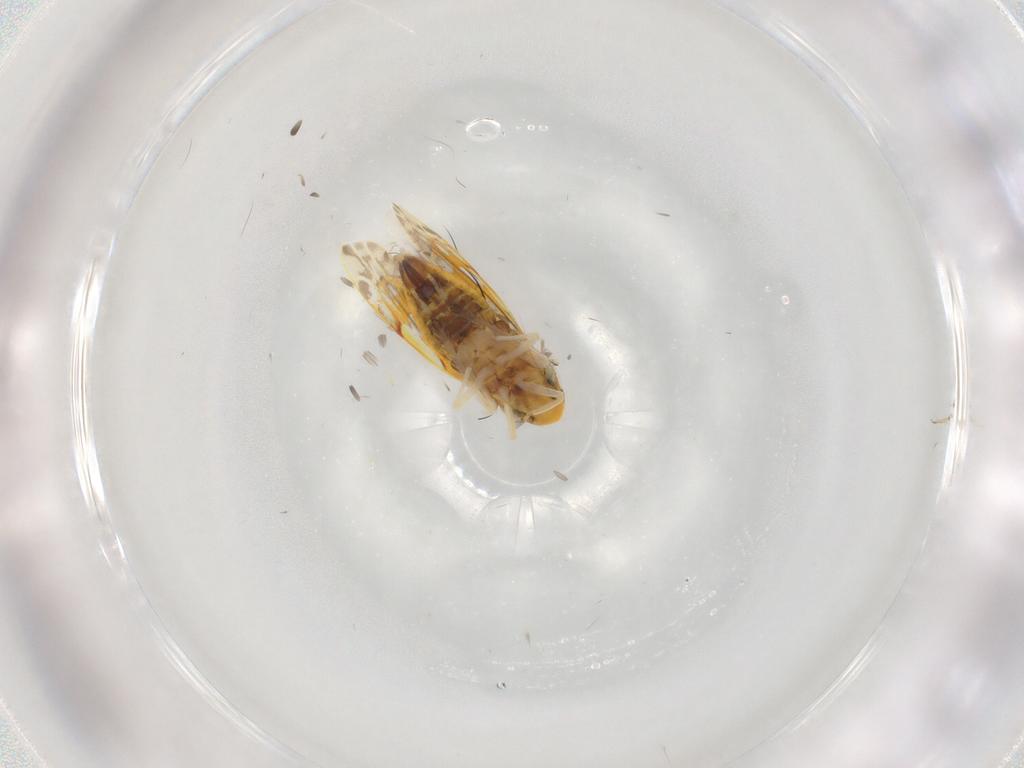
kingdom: Animalia
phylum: Arthropoda
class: Insecta
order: Hemiptera
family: Cicadellidae
